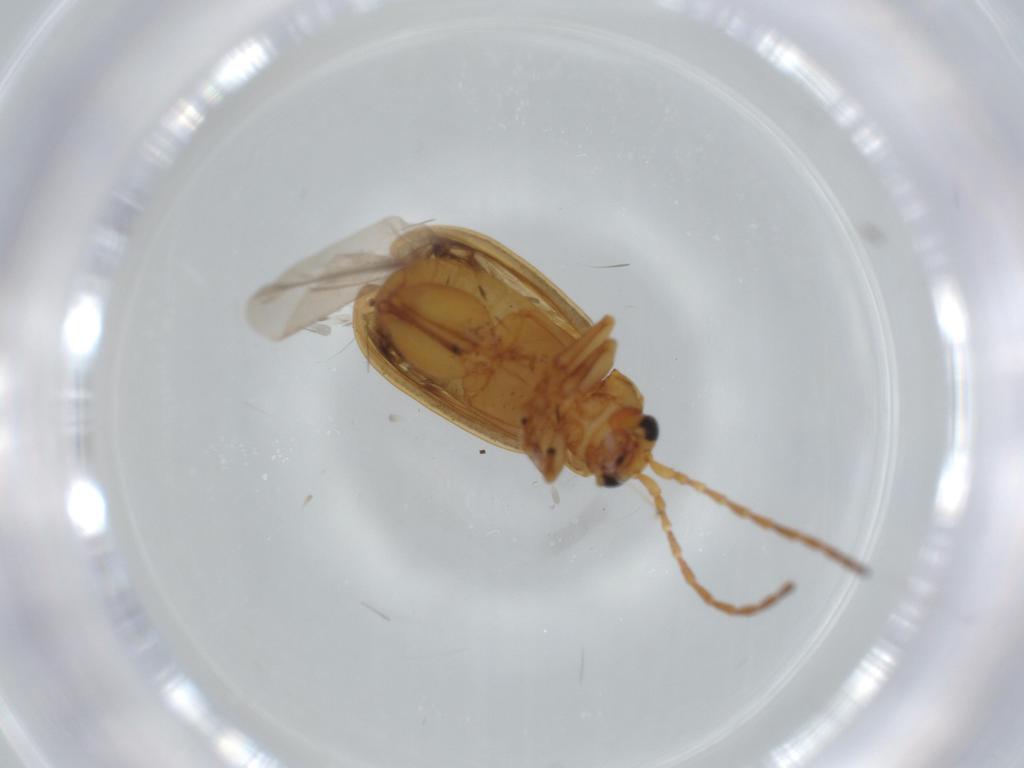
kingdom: Animalia
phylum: Arthropoda
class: Insecta
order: Coleoptera
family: Chrysomelidae
